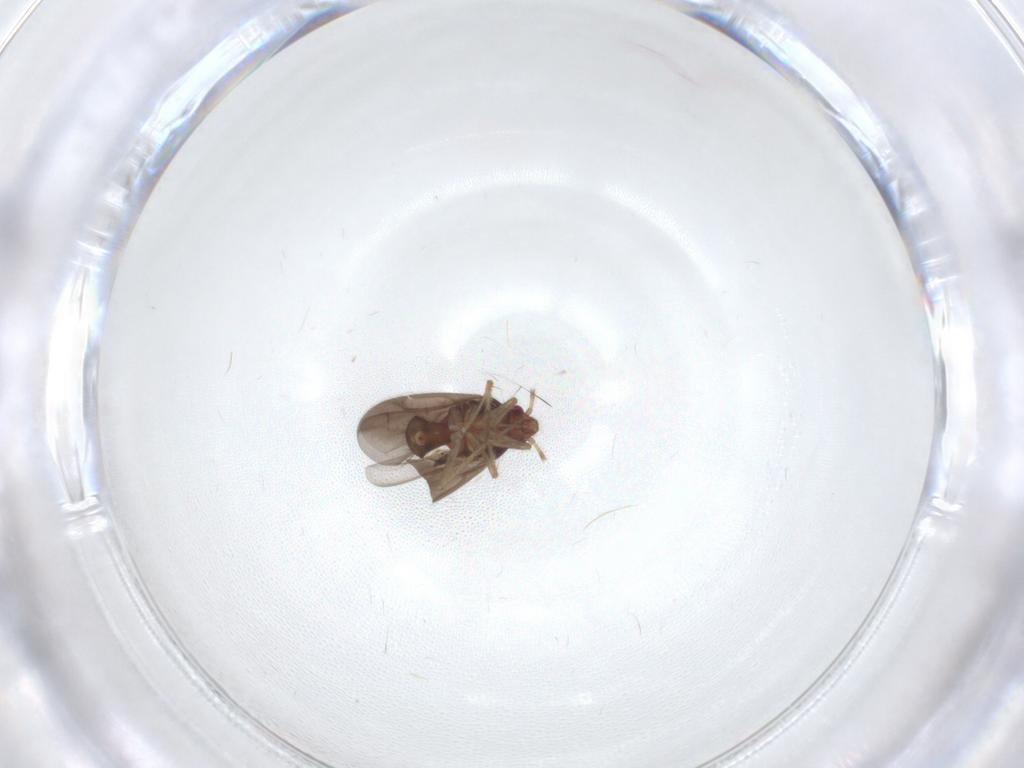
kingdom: Animalia
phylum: Arthropoda
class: Insecta
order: Hemiptera
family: Ceratocombidae
